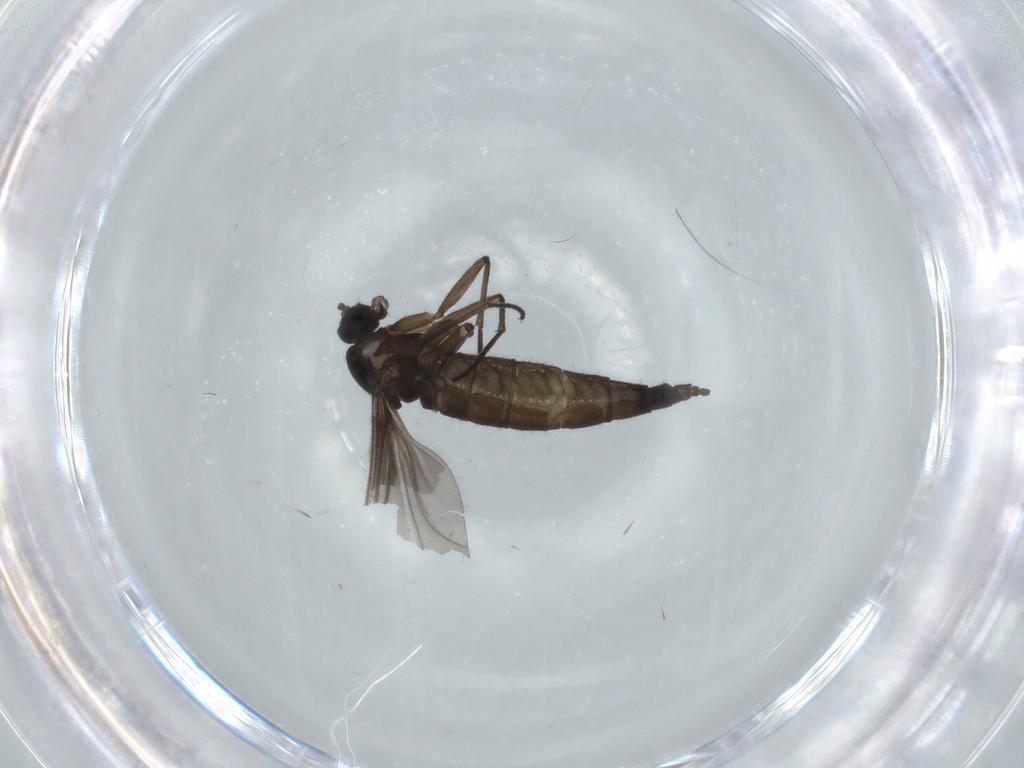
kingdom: Animalia
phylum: Arthropoda
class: Insecta
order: Diptera
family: Sciaridae
